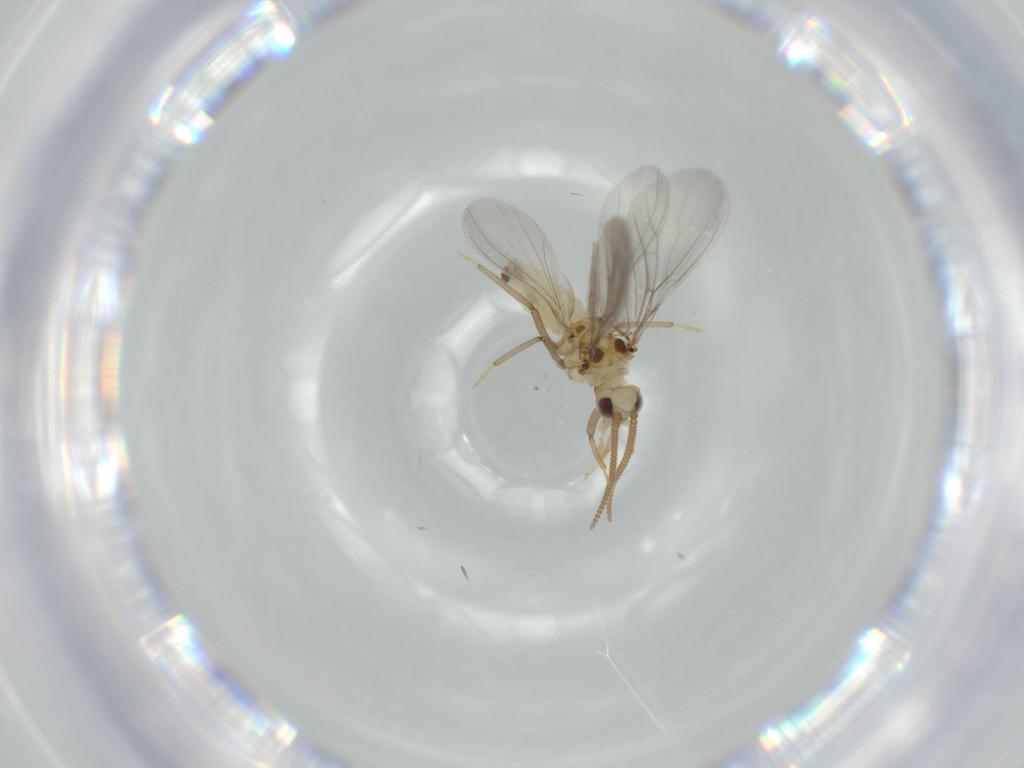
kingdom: Animalia
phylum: Arthropoda
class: Insecta
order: Neuroptera
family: Coniopterygidae
